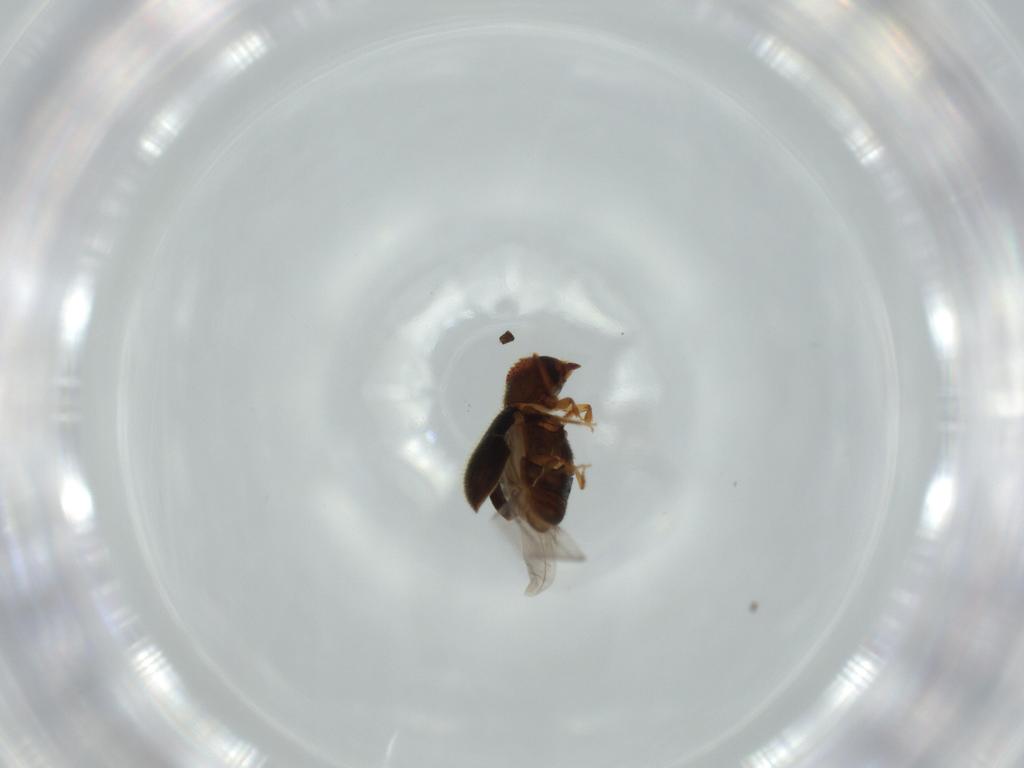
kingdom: Animalia
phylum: Arthropoda
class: Insecta
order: Coleoptera
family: Curculionidae
